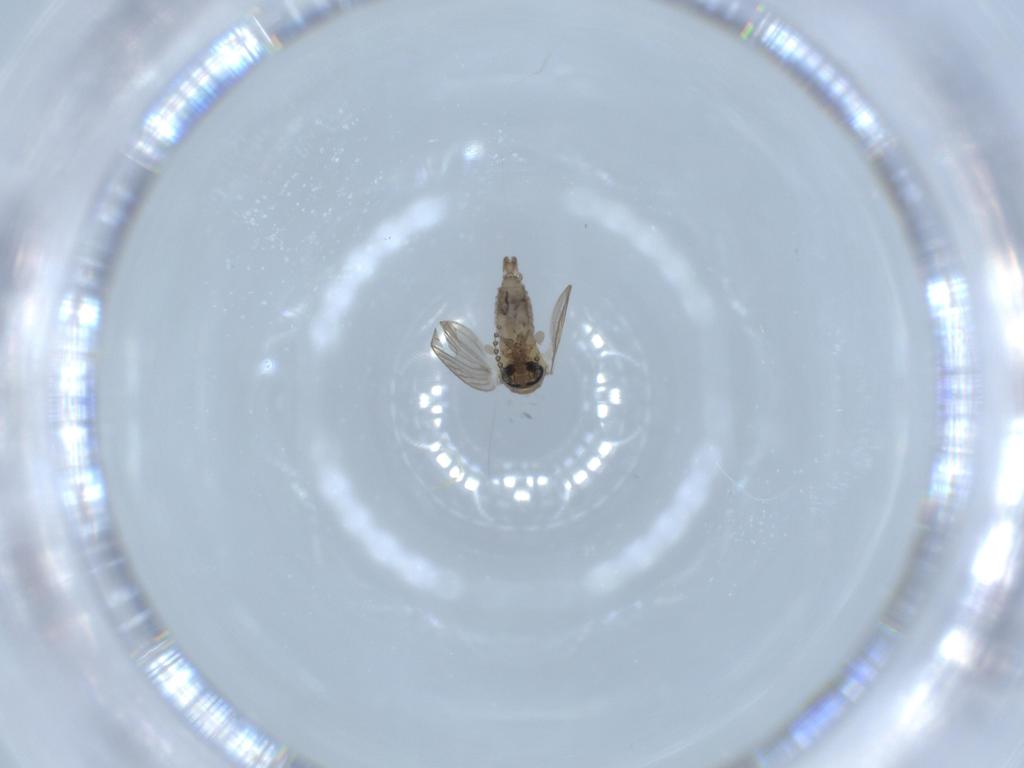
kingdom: Animalia
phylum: Arthropoda
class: Insecta
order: Diptera
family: Psychodidae
